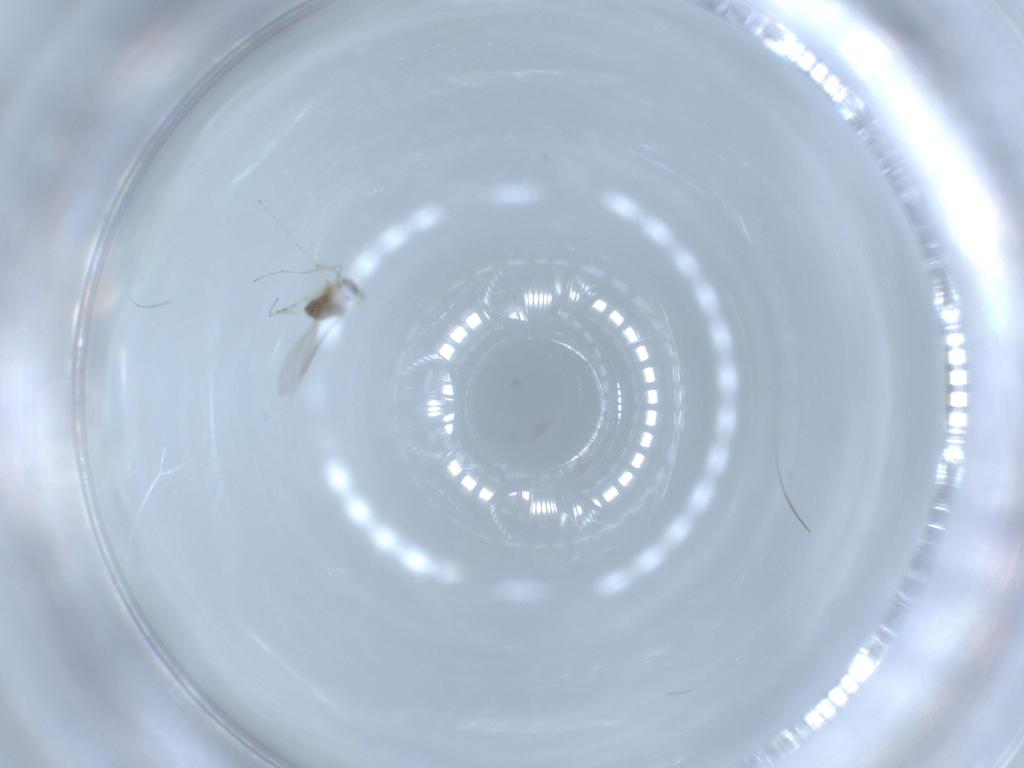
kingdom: Animalia
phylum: Arthropoda
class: Insecta
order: Diptera
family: Cecidomyiidae
